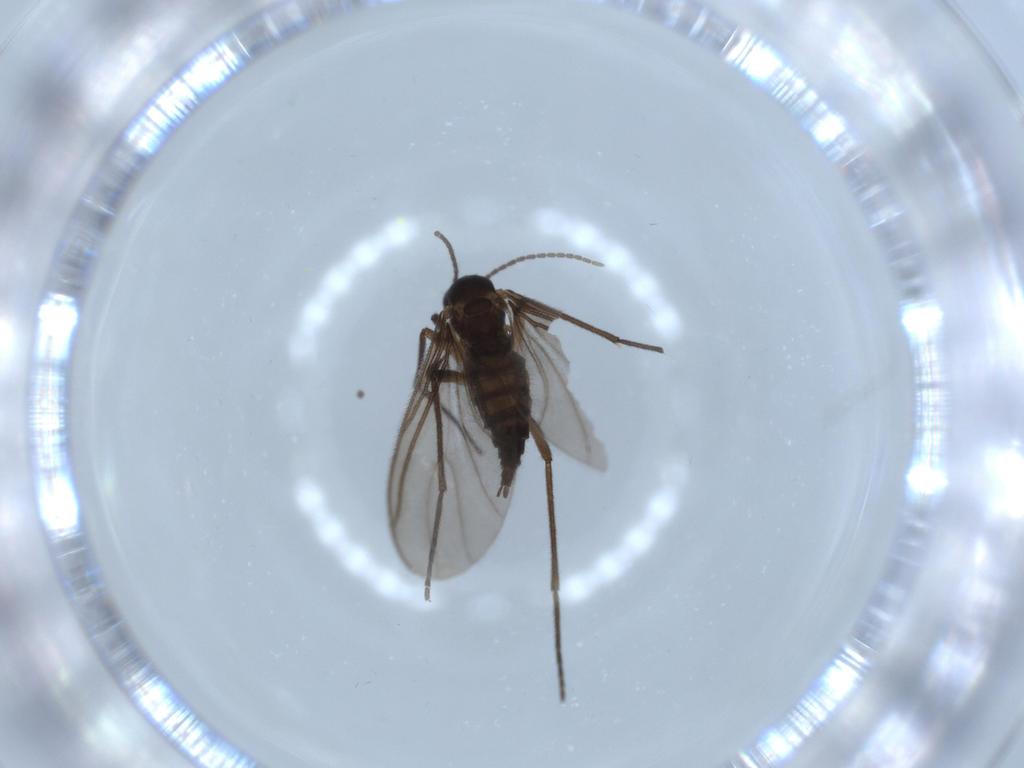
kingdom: Animalia
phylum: Arthropoda
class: Insecta
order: Diptera
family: Sciaridae
